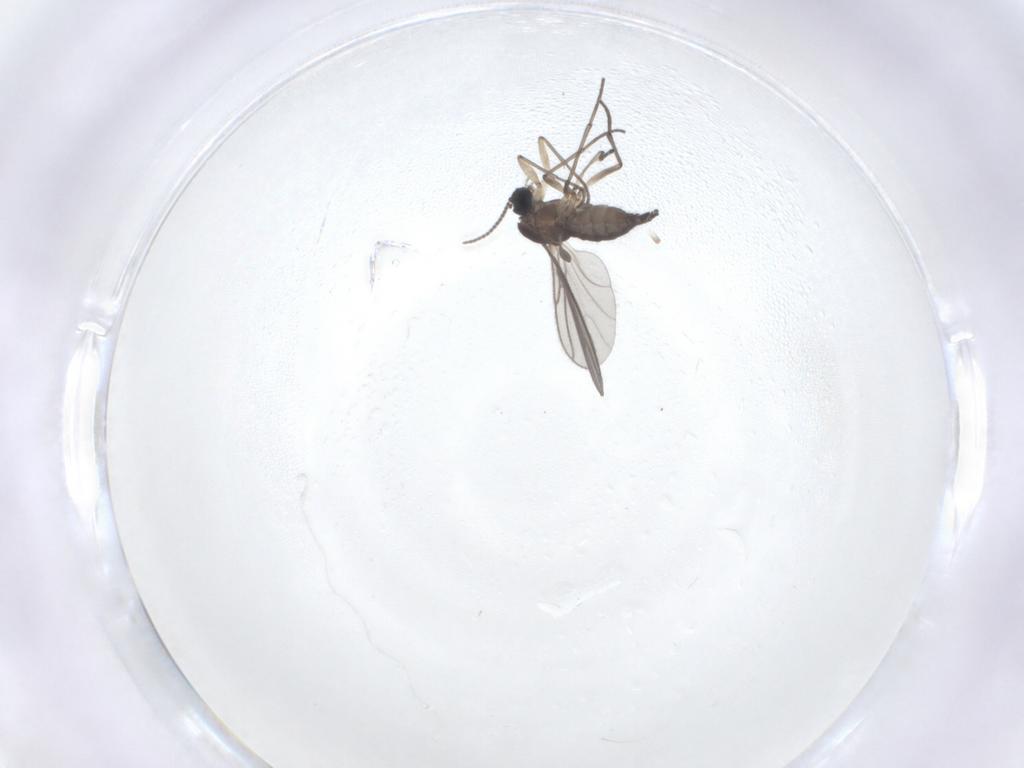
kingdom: Animalia
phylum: Arthropoda
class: Insecta
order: Diptera
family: Sciaridae
